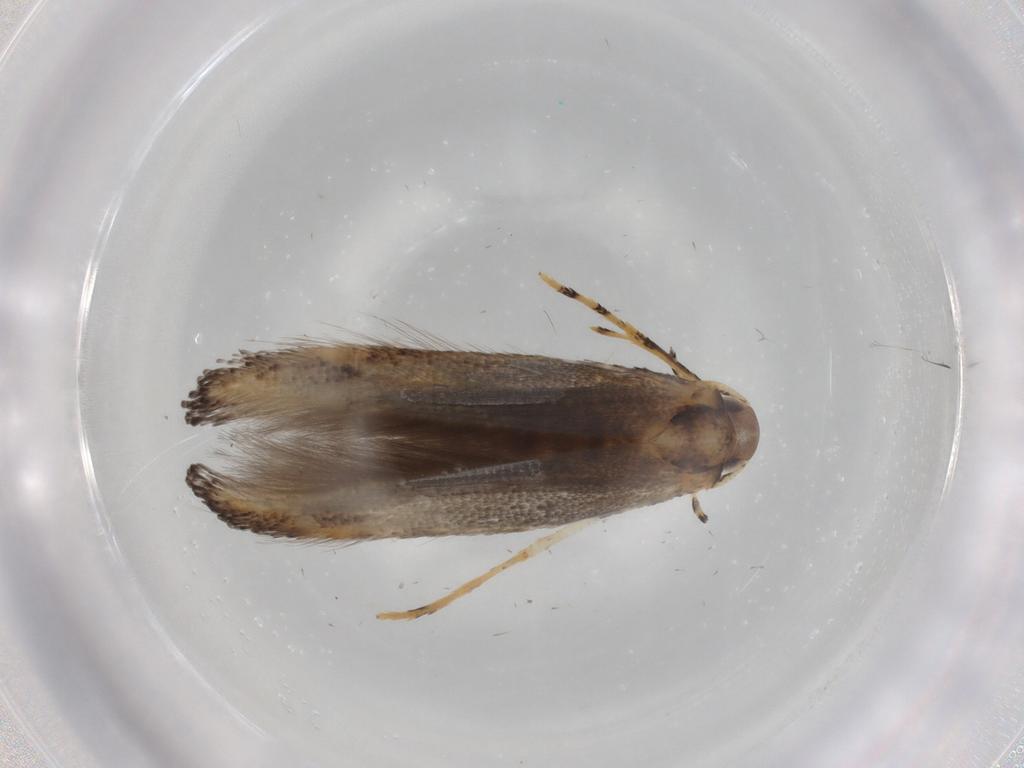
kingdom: Animalia
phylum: Arthropoda
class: Insecta
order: Lepidoptera
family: Cosmopterigidae
